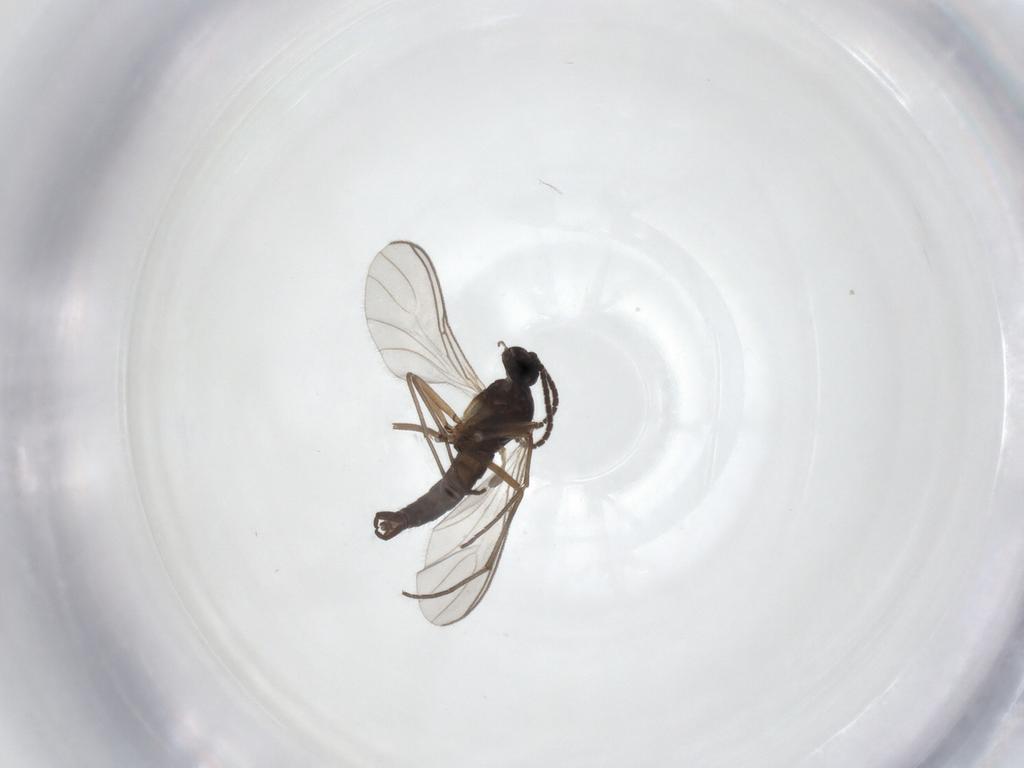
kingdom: Animalia
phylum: Arthropoda
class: Insecta
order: Diptera
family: Sciaridae
